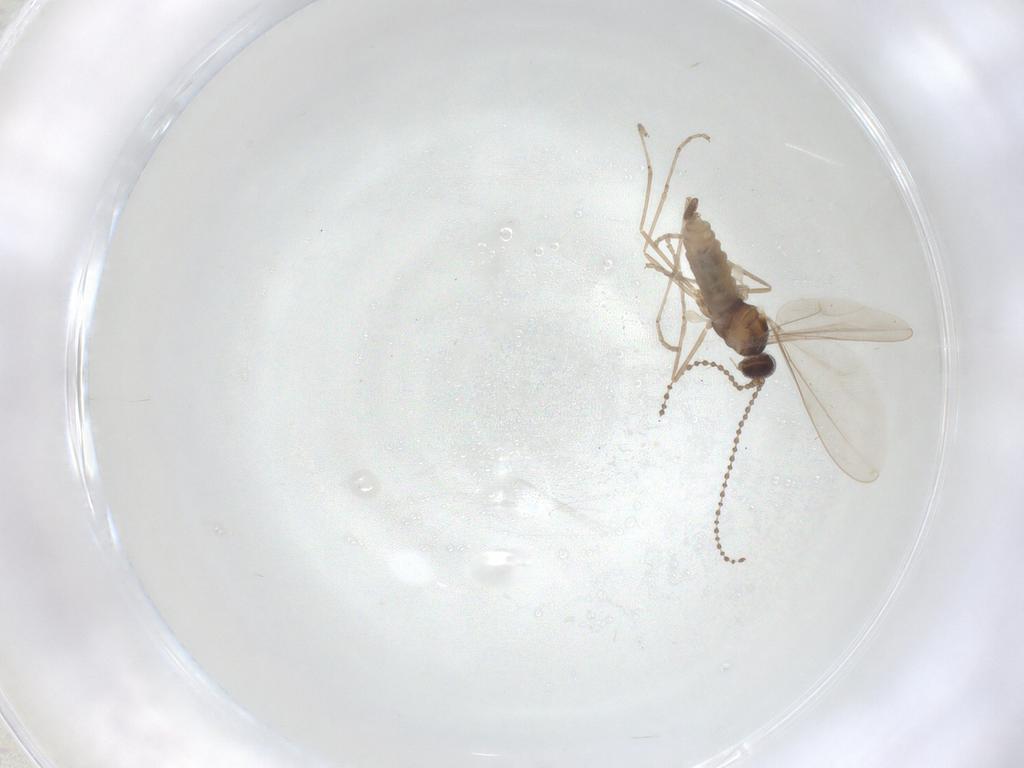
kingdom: Animalia
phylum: Arthropoda
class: Insecta
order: Diptera
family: Cecidomyiidae
